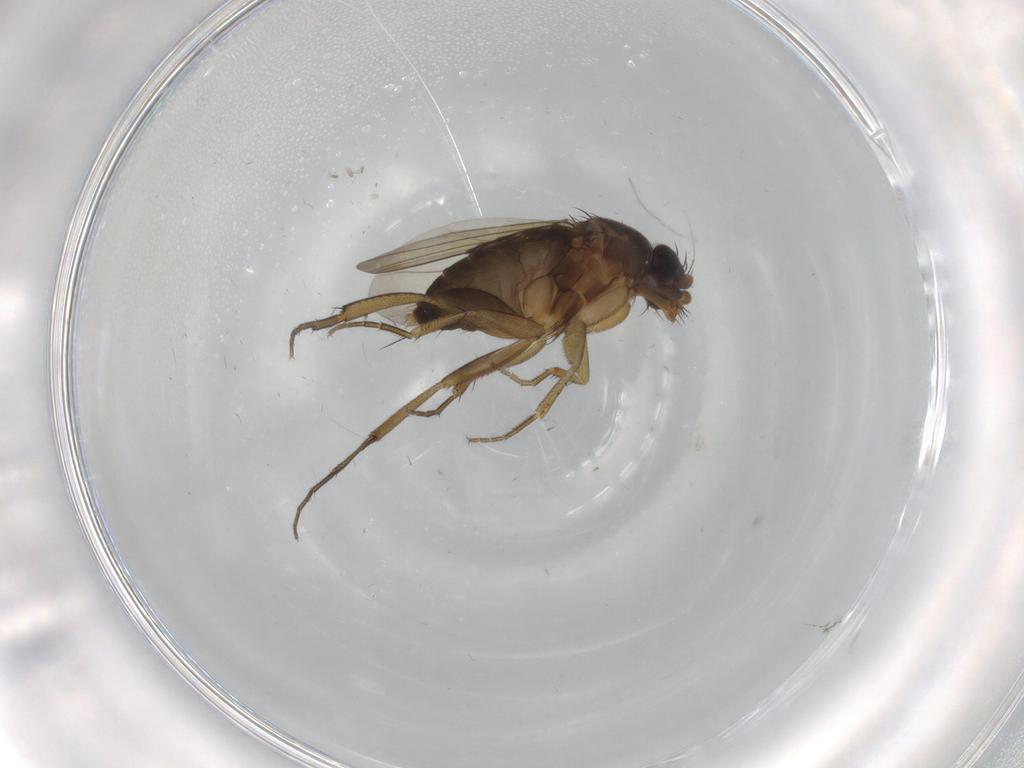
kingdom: Animalia
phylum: Arthropoda
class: Insecta
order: Diptera
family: Phoridae
